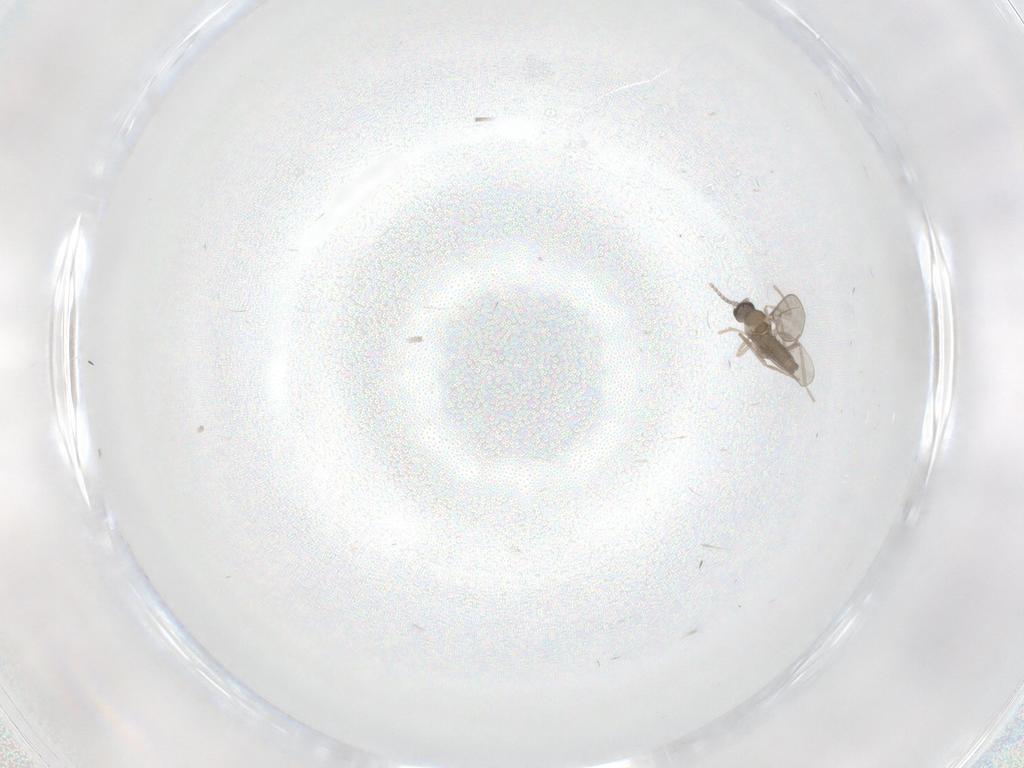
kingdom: Animalia
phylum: Arthropoda
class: Insecta
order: Diptera
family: Cecidomyiidae
